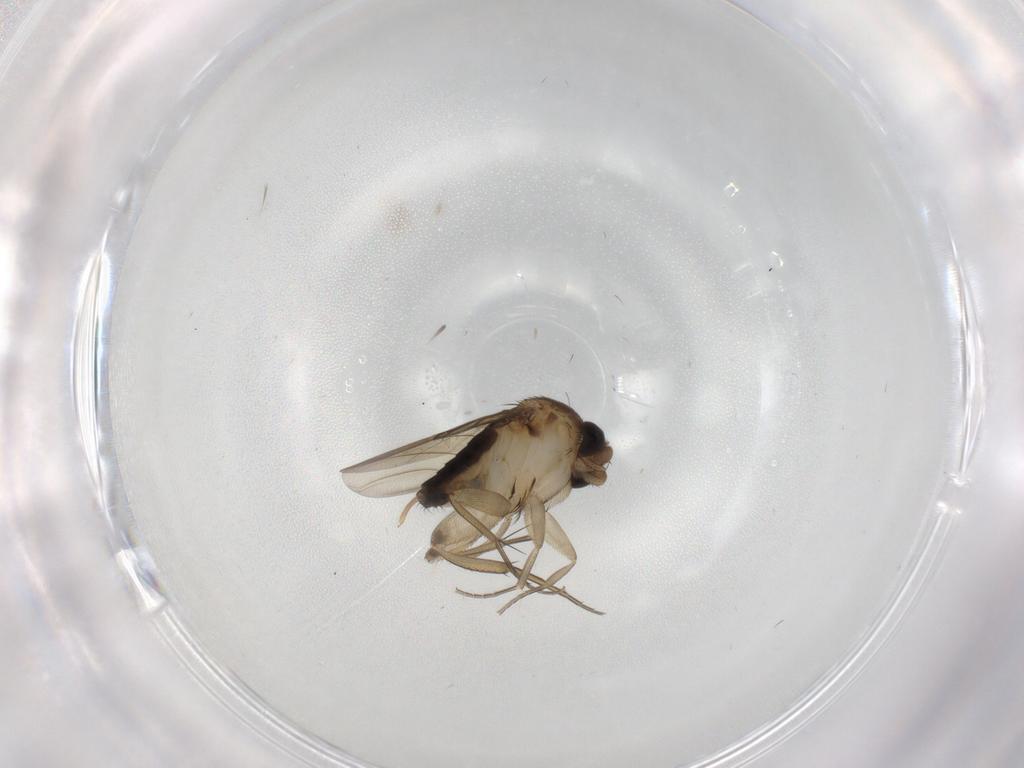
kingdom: Animalia
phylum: Arthropoda
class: Insecta
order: Diptera
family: Phoridae
